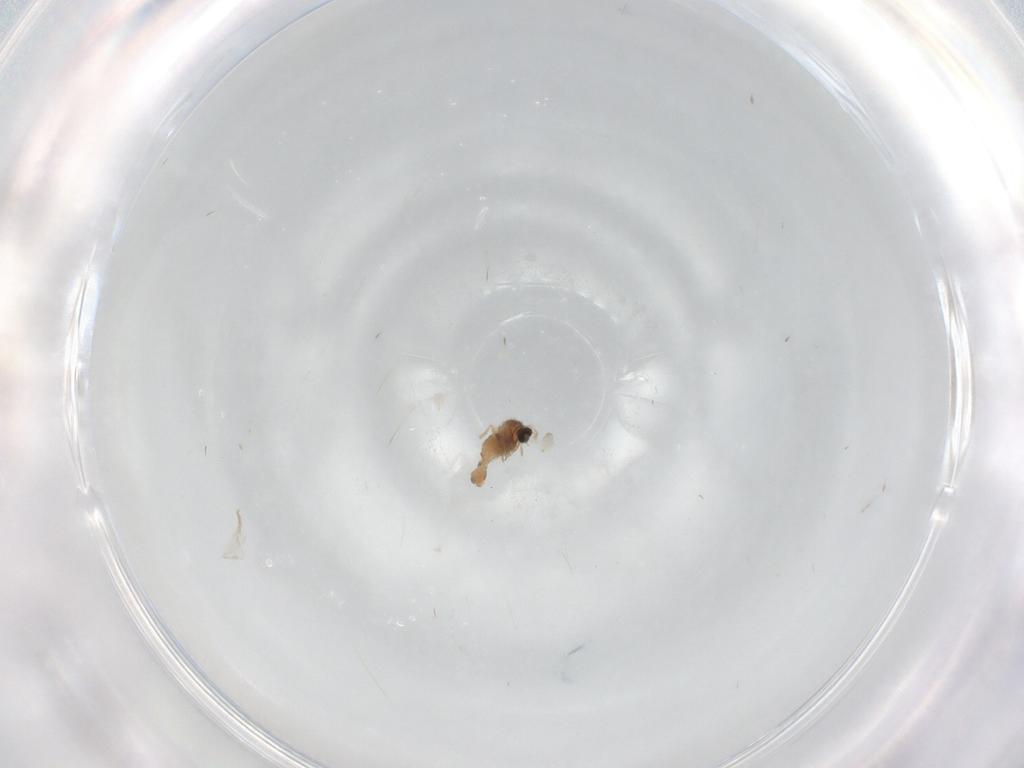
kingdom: Animalia
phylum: Arthropoda
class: Insecta
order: Diptera
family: Cecidomyiidae
